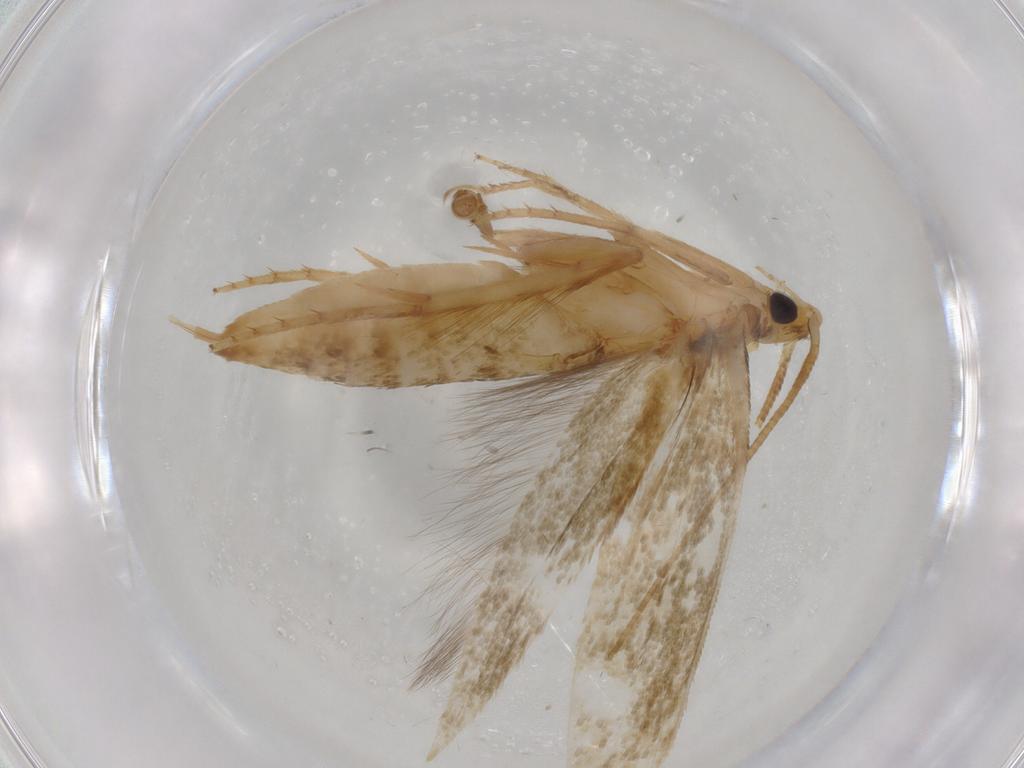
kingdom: Animalia
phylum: Arthropoda
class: Insecta
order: Lepidoptera
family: Tineidae
